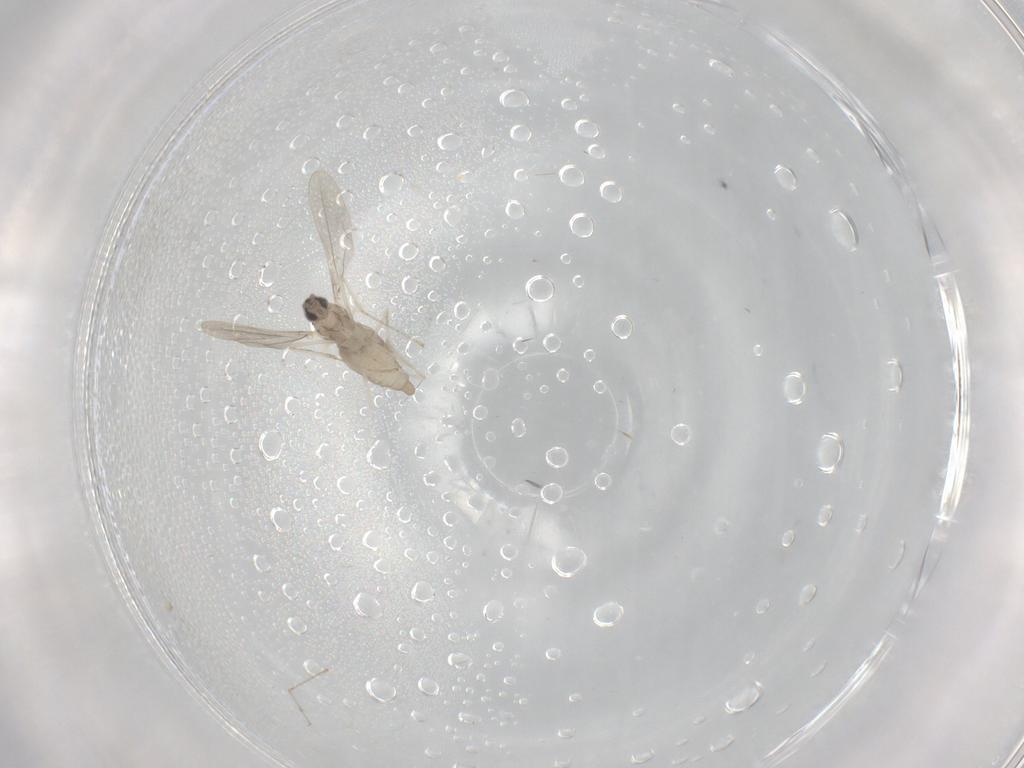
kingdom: Animalia
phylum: Arthropoda
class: Insecta
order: Diptera
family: Cecidomyiidae
